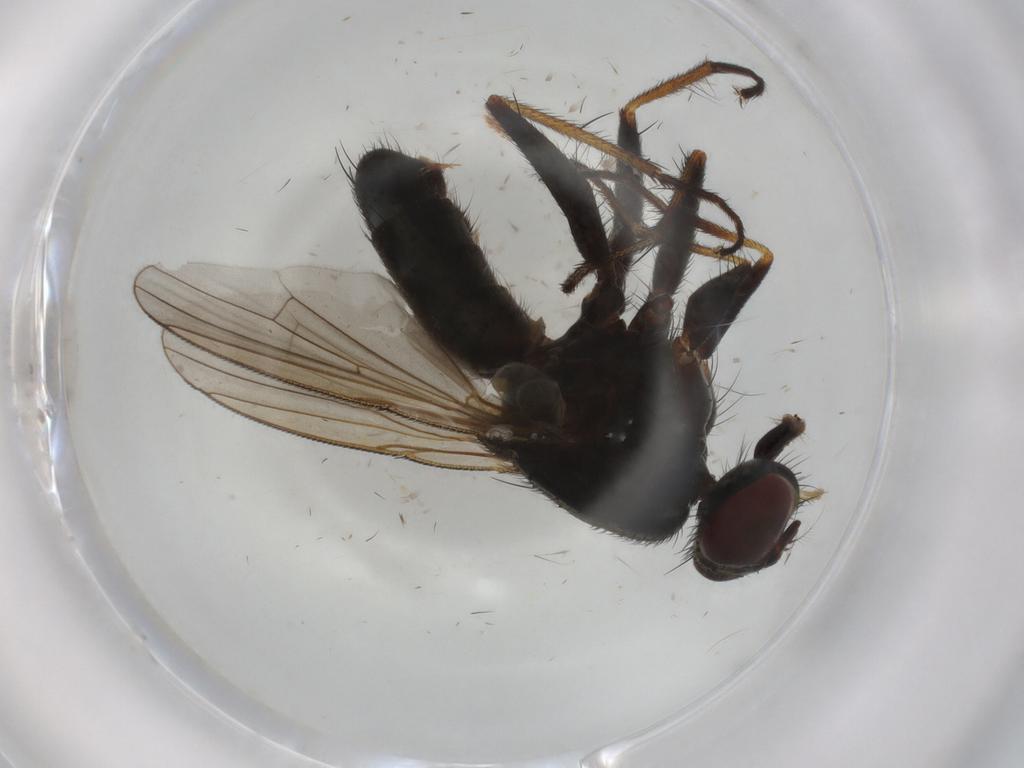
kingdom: Animalia
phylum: Arthropoda
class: Insecta
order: Diptera
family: Muscidae
